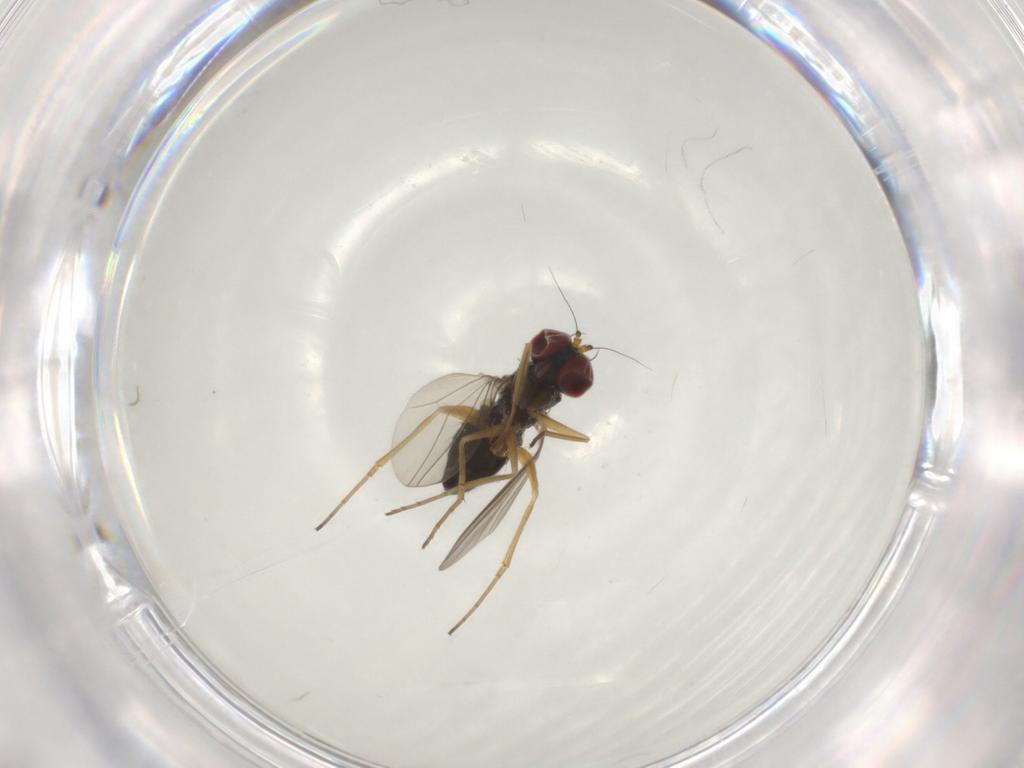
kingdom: Animalia
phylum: Arthropoda
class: Insecta
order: Diptera
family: Dolichopodidae
